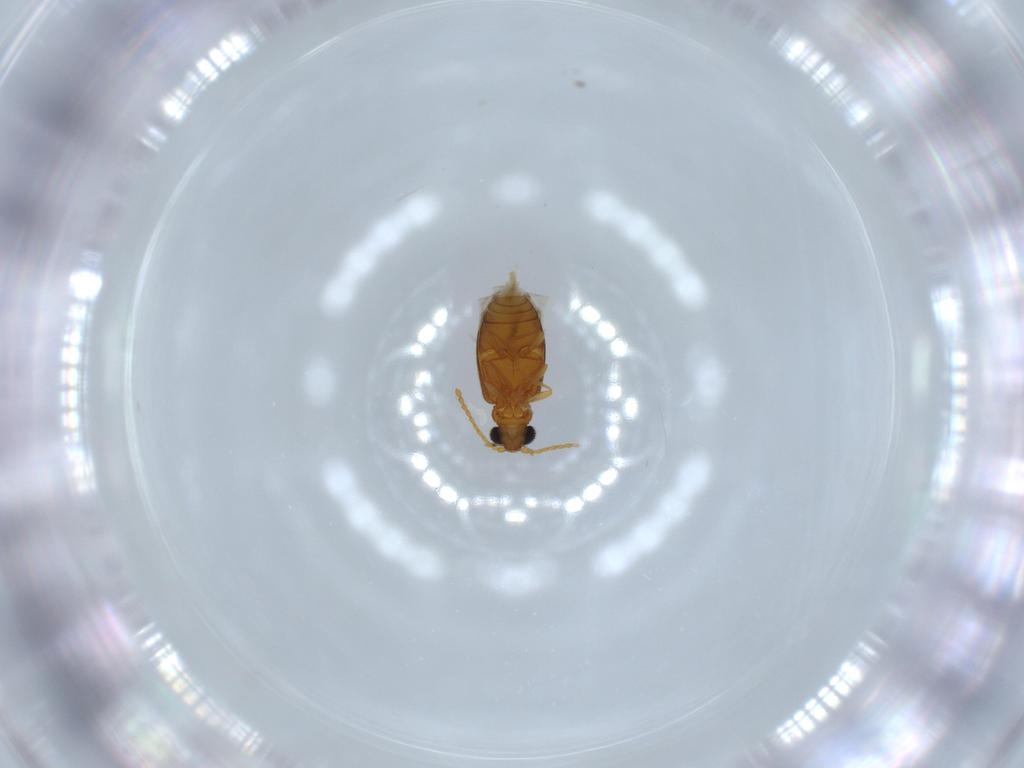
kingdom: Animalia
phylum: Arthropoda
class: Insecta
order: Coleoptera
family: Aderidae
